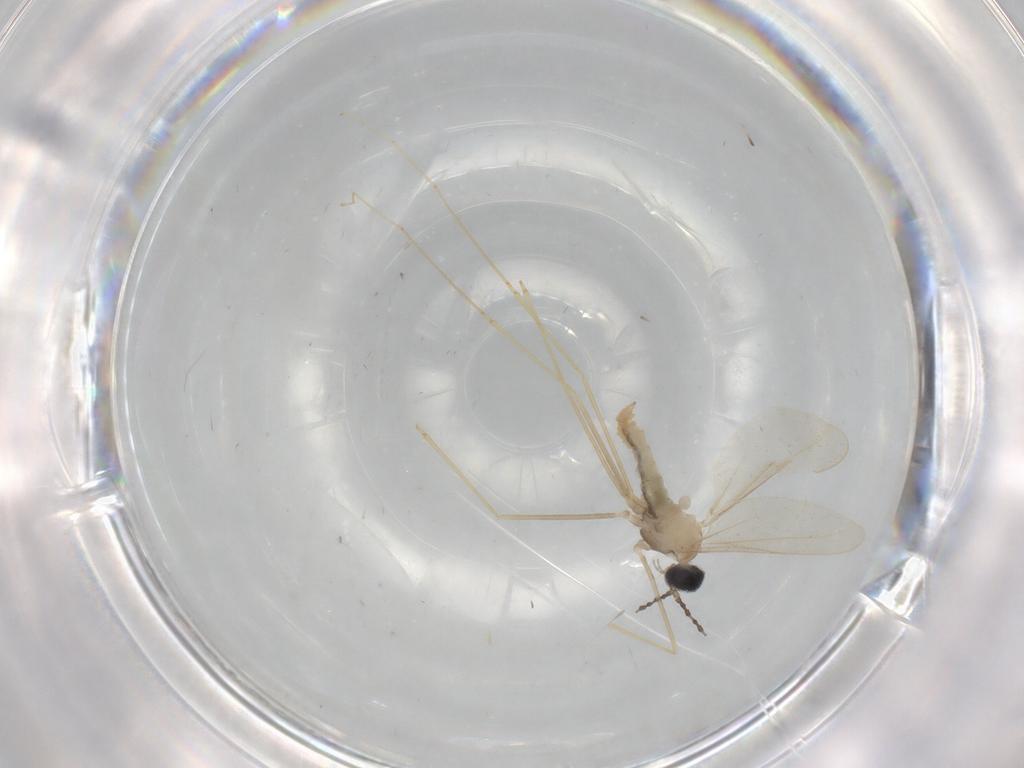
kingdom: Animalia
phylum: Arthropoda
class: Insecta
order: Diptera
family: Cecidomyiidae
